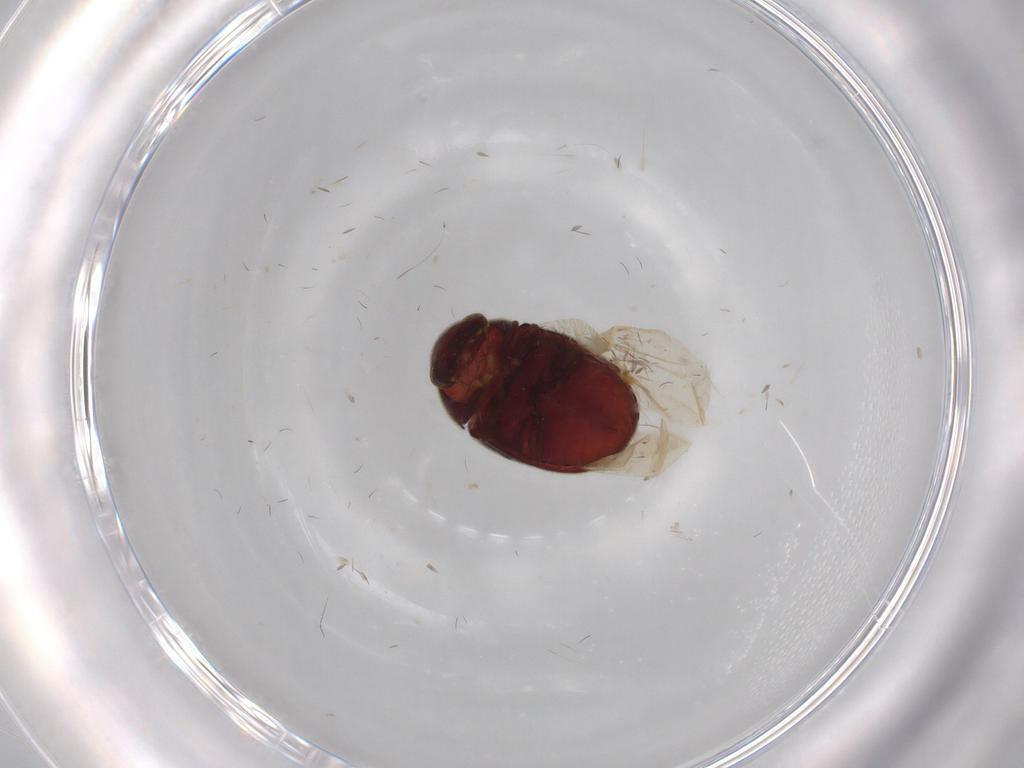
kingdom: Animalia
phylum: Arthropoda
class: Insecta
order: Coleoptera
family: Ptinidae
